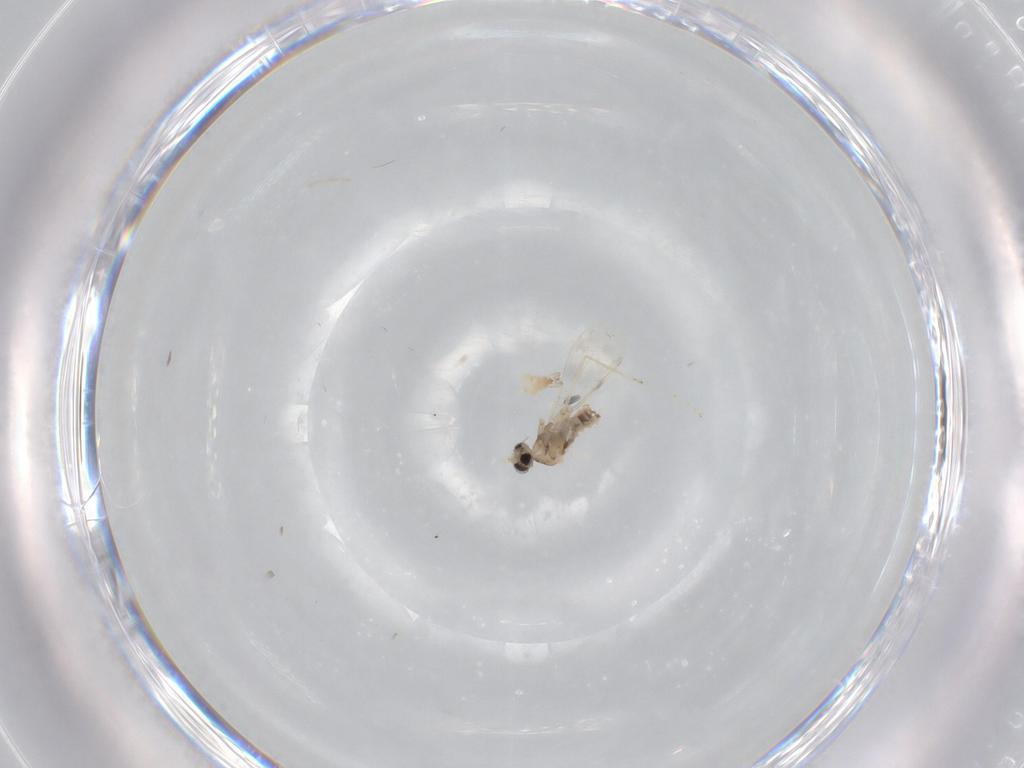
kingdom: Animalia
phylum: Arthropoda
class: Insecta
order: Diptera
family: Cecidomyiidae
